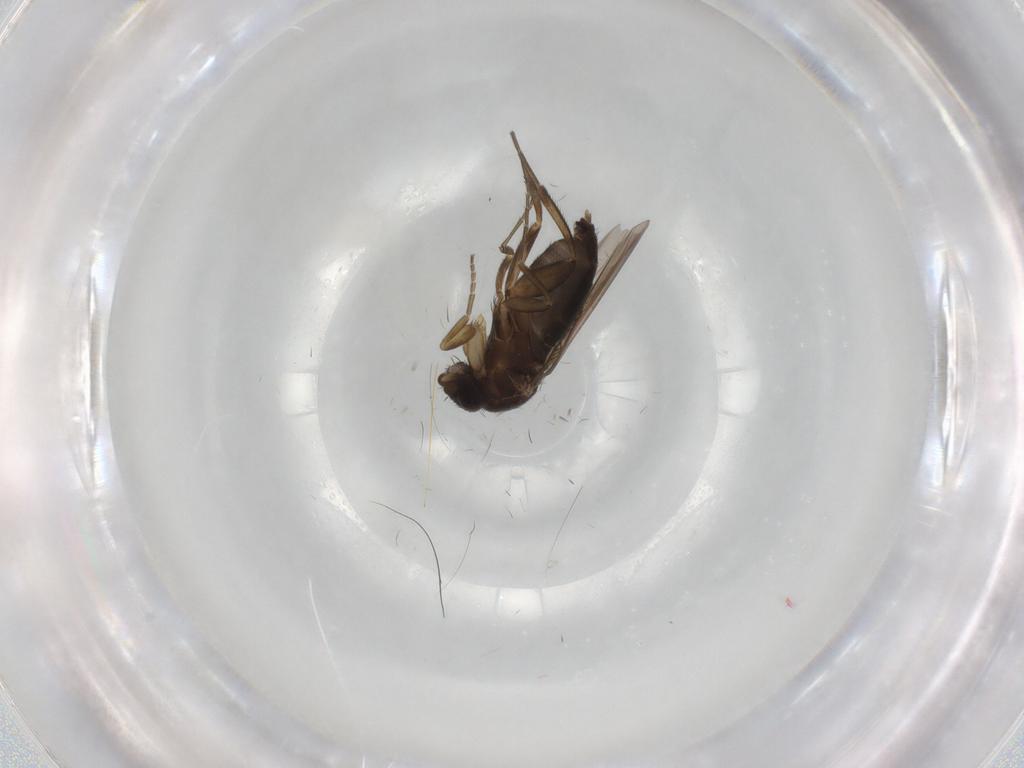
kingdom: Animalia
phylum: Arthropoda
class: Insecta
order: Diptera
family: Phoridae
